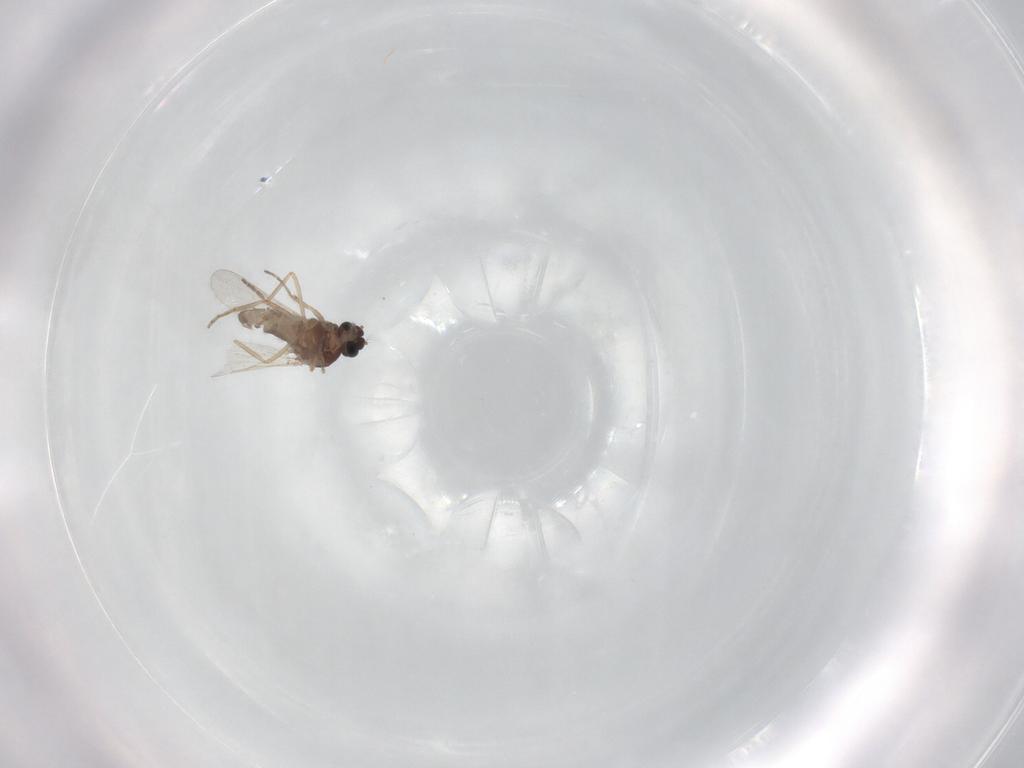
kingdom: Animalia
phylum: Arthropoda
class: Insecta
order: Diptera
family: Ceratopogonidae
